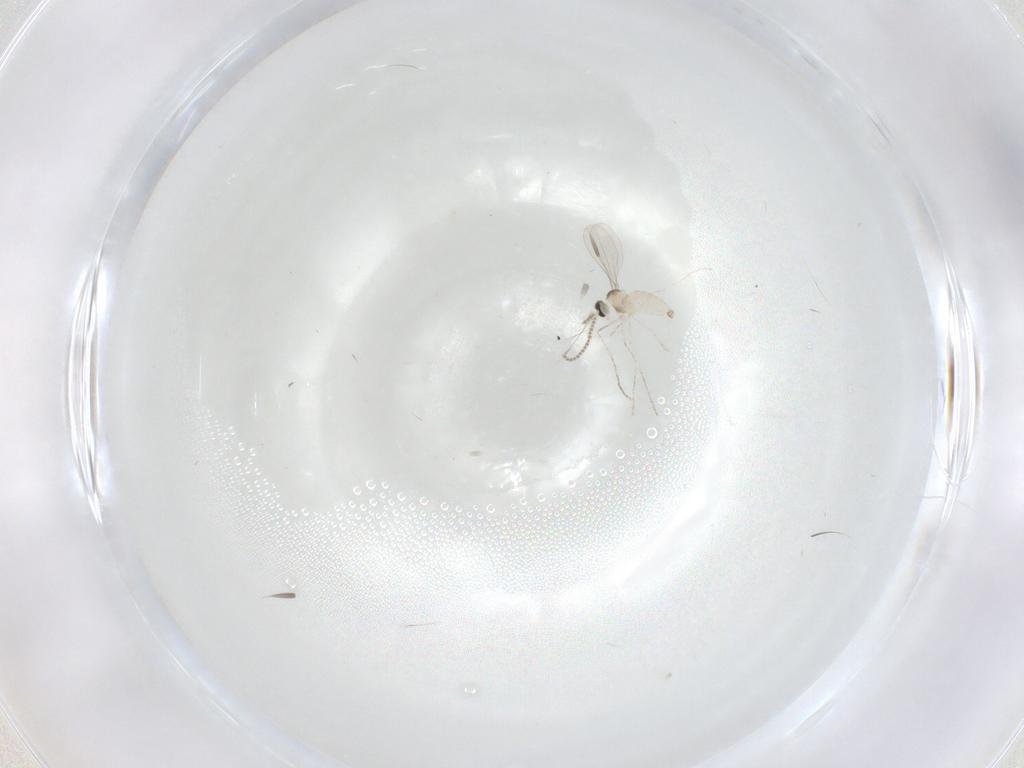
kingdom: Animalia
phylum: Arthropoda
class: Insecta
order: Diptera
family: Cecidomyiidae
